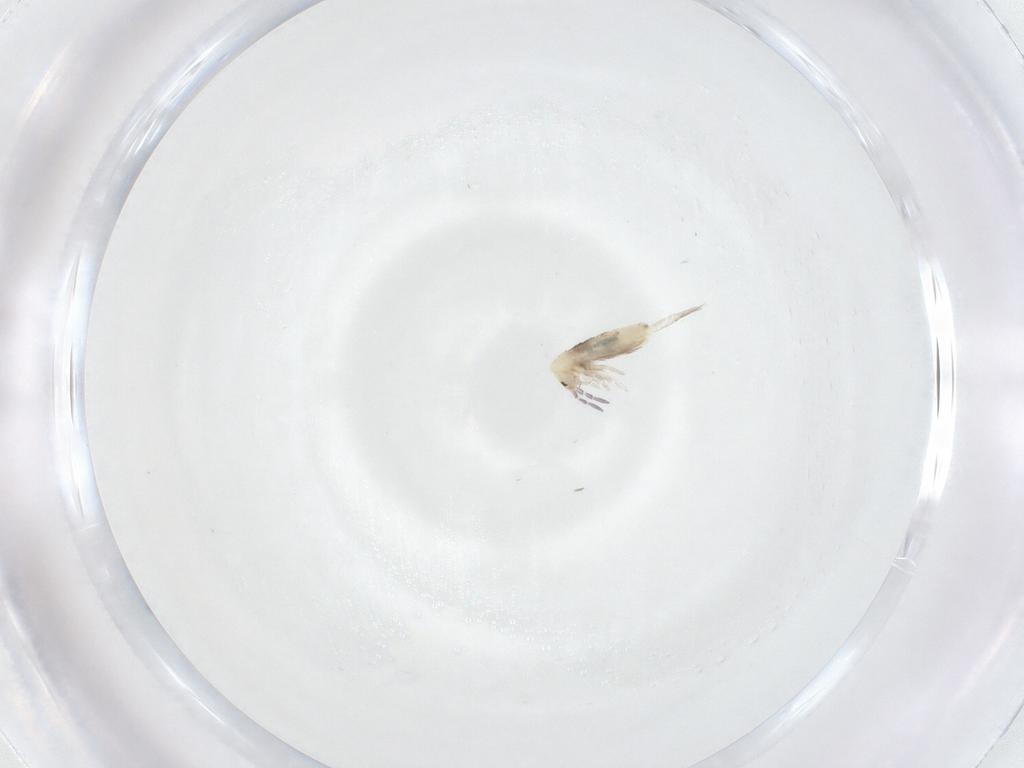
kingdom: Animalia
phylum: Arthropoda
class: Collembola
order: Entomobryomorpha
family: Entomobryidae
